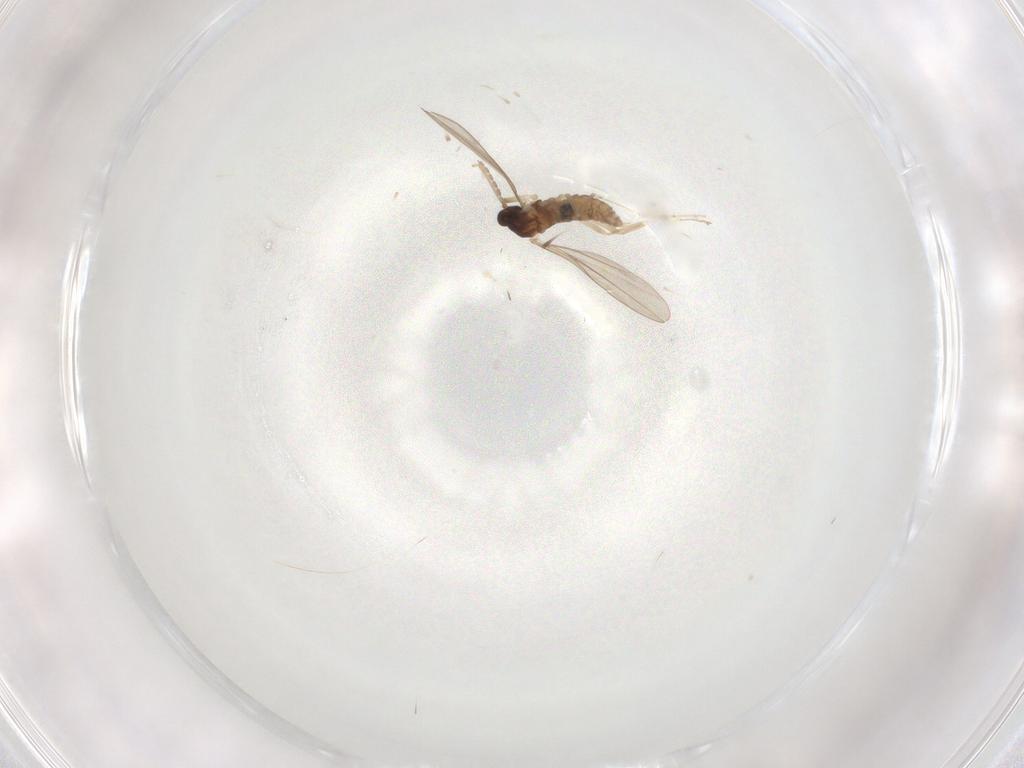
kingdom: Animalia
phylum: Arthropoda
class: Insecta
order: Diptera
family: Cecidomyiidae
